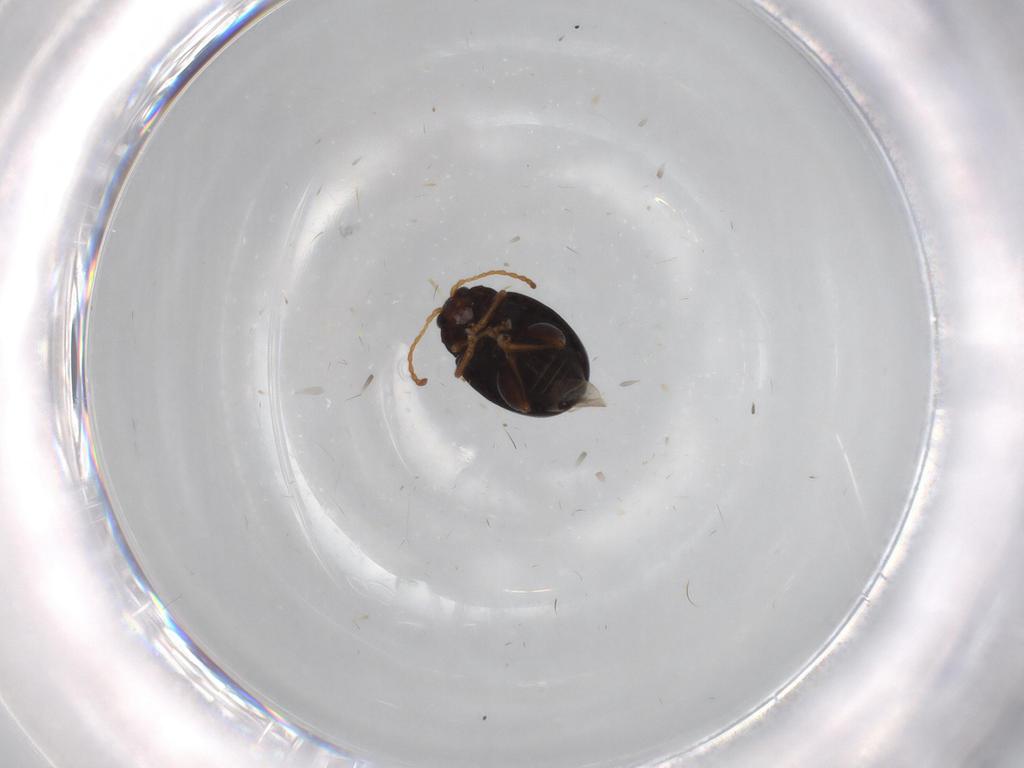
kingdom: Animalia
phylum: Arthropoda
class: Insecta
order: Coleoptera
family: Chrysomelidae
